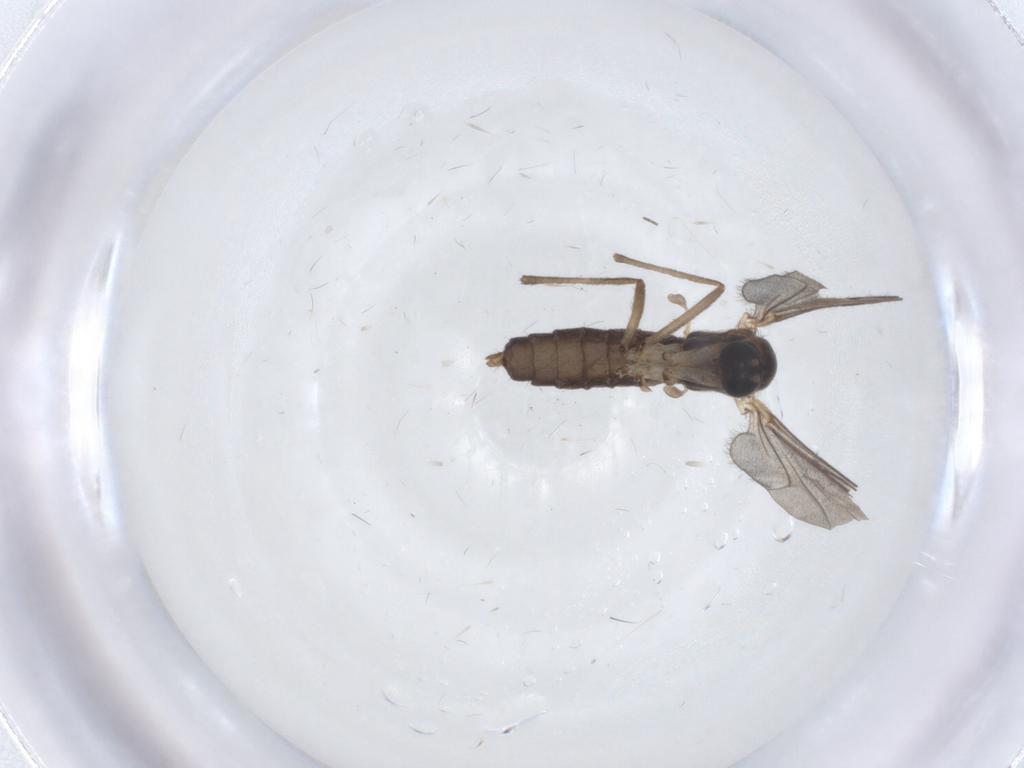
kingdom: Animalia
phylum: Arthropoda
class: Insecta
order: Diptera
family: Mycetophilidae
